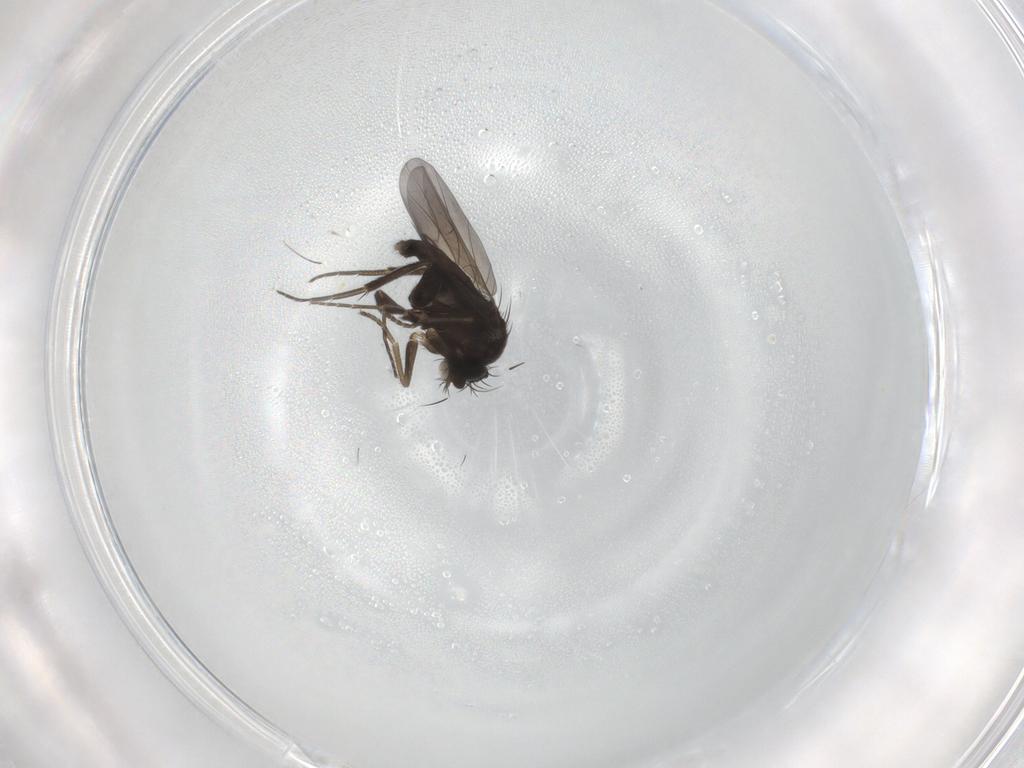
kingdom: Animalia
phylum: Arthropoda
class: Insecta
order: Diptera
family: Phoridae
